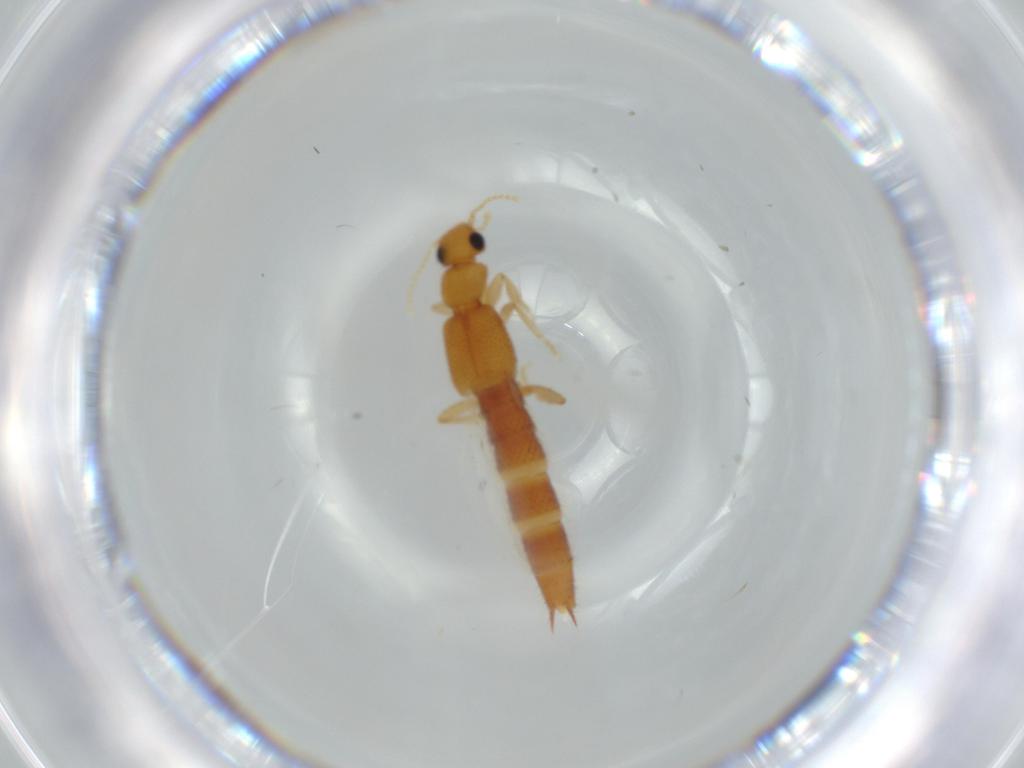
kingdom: Animalia
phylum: Arthropoda
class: Insecta
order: Coleoptera
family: Staphylinidae
